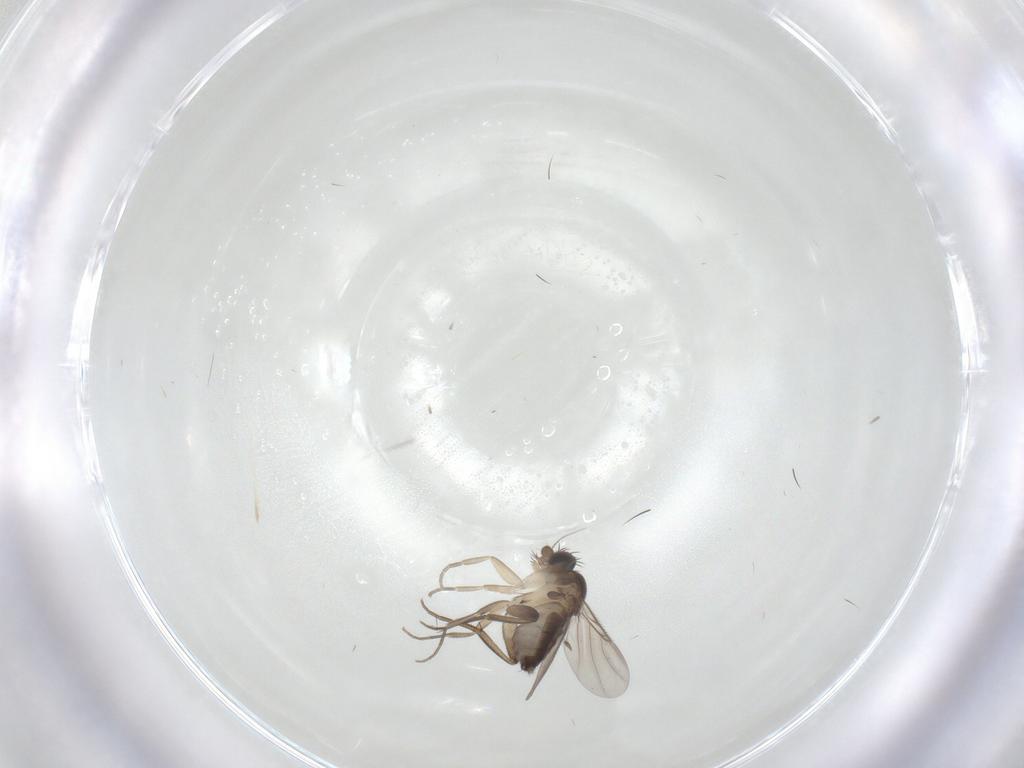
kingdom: Animalia
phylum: Arthropoda
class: Insecta
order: Diptera
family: Phoridae
